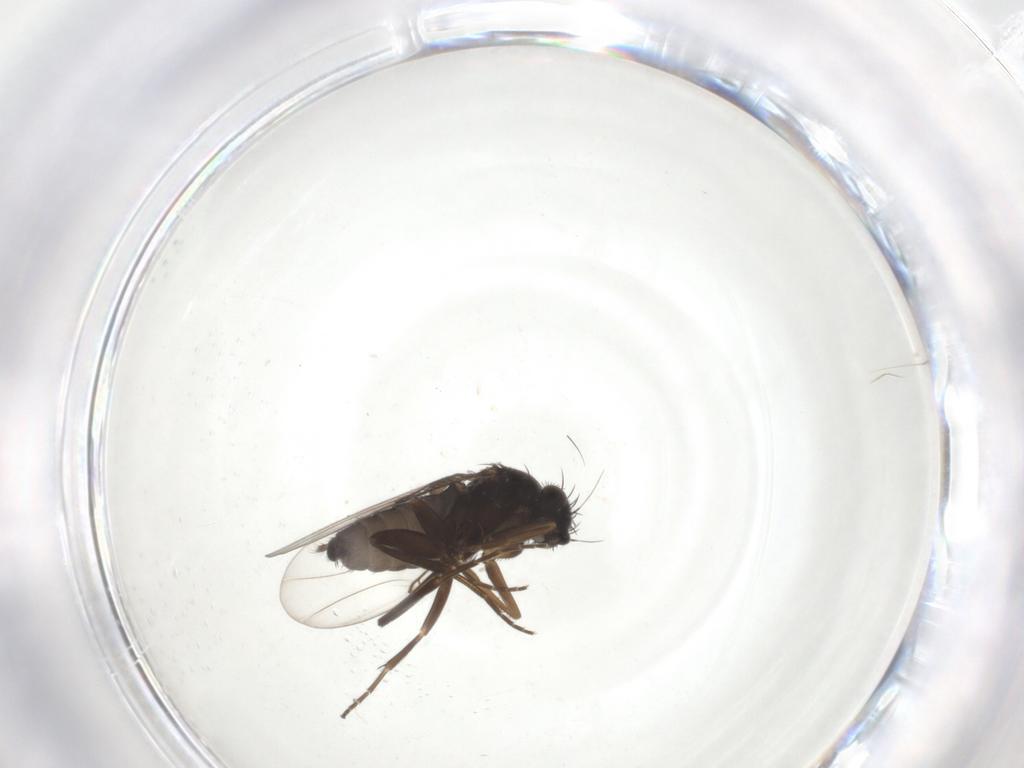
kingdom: Animalia
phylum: Arthropoda
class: Insecta
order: Diptera
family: Phoridae
